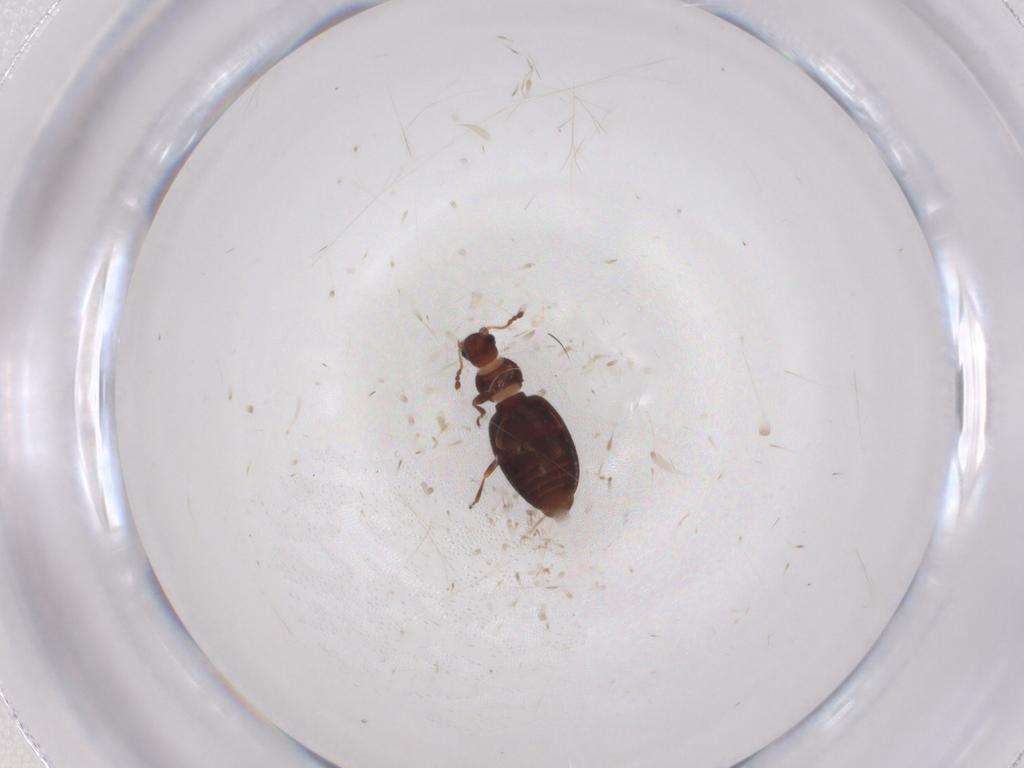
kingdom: Animalia
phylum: Arthropoda
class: Insecta
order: Coleoptera
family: Latridiidae
